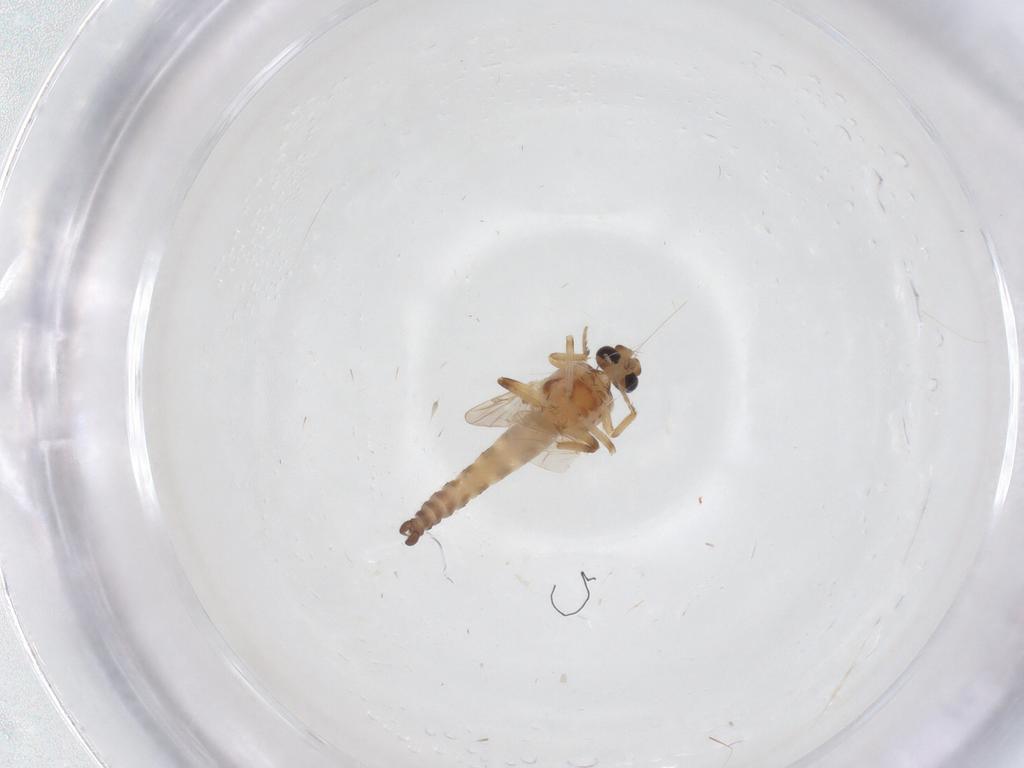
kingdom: Animalia
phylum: Arthropoda
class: Insecta
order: Diptera
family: Ceratopogonidae
